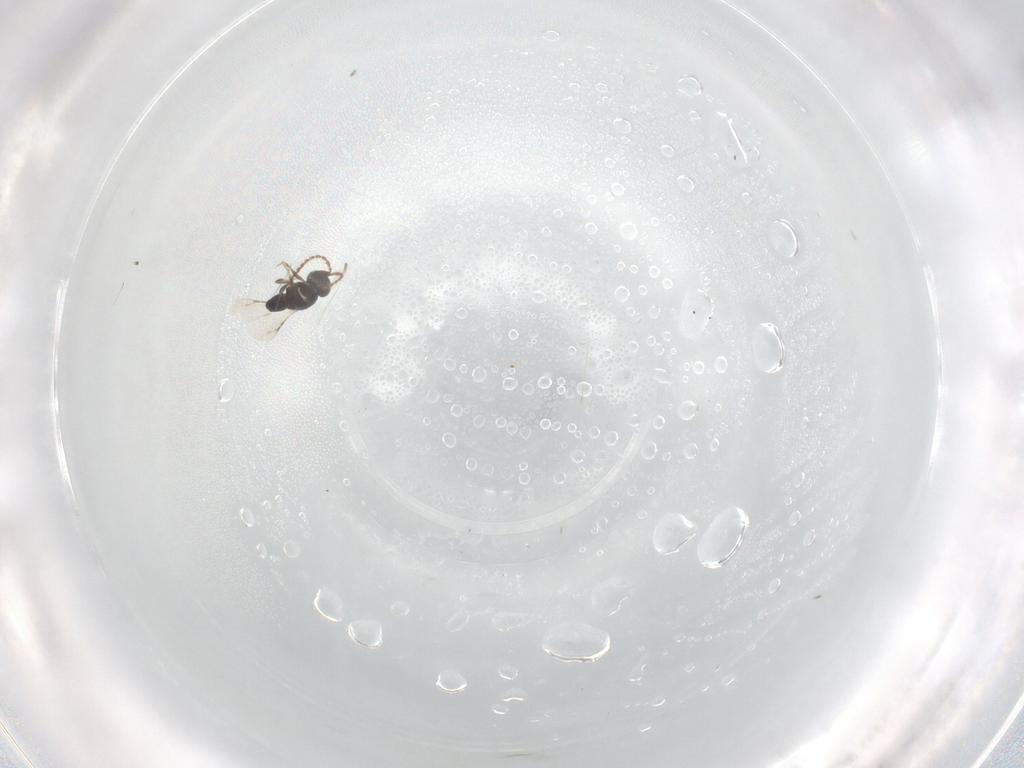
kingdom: Animalia
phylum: Arthropoda
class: Insecta
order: Hymenoptera
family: Ceraphronidae
